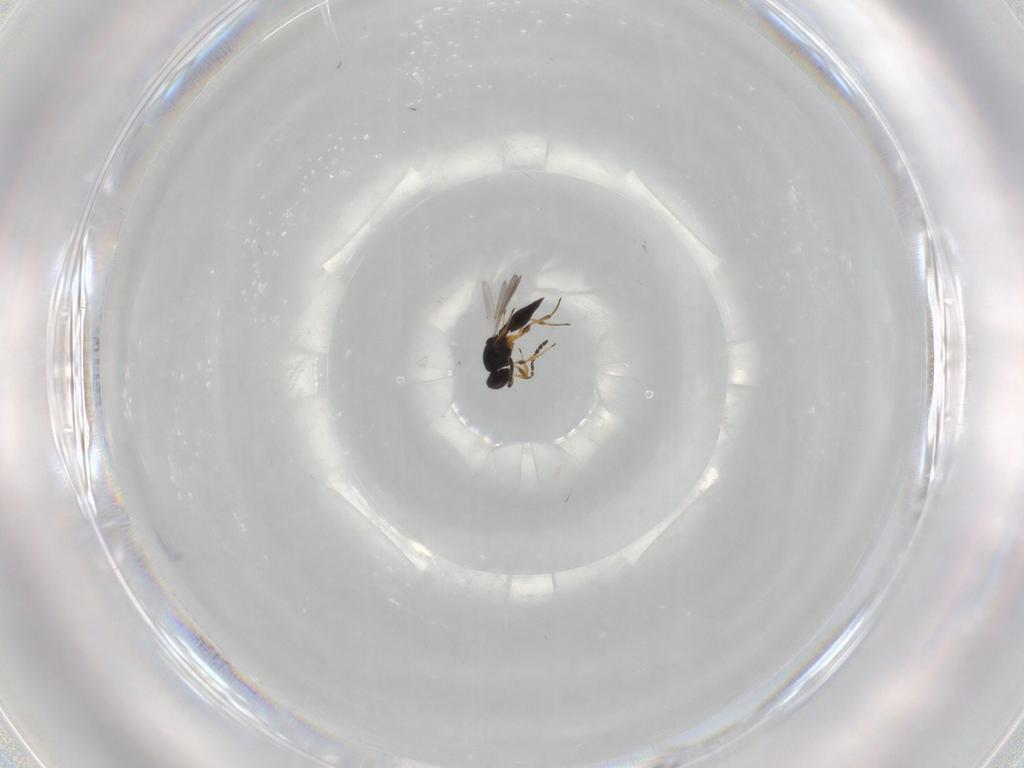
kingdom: Animalia
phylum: Arthropoda
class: Insecta
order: Hymenoptera
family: Platygastridae
